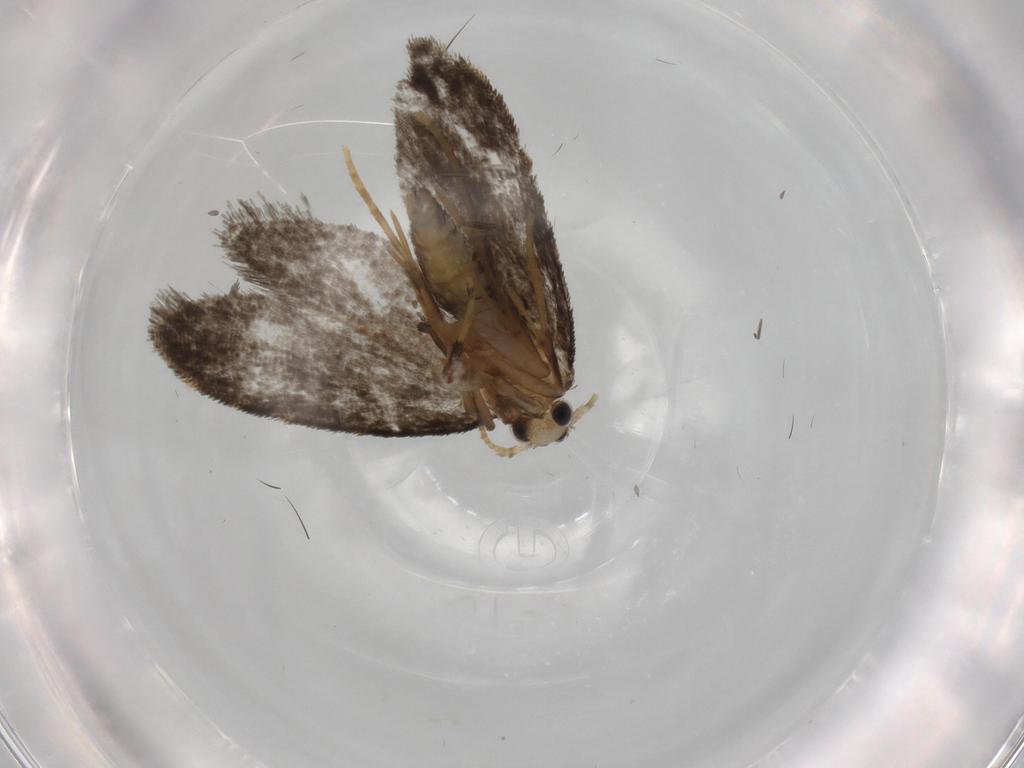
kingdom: Animalia
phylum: Arthropoda
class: Insecta
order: Lepidoptera
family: Psychidae
